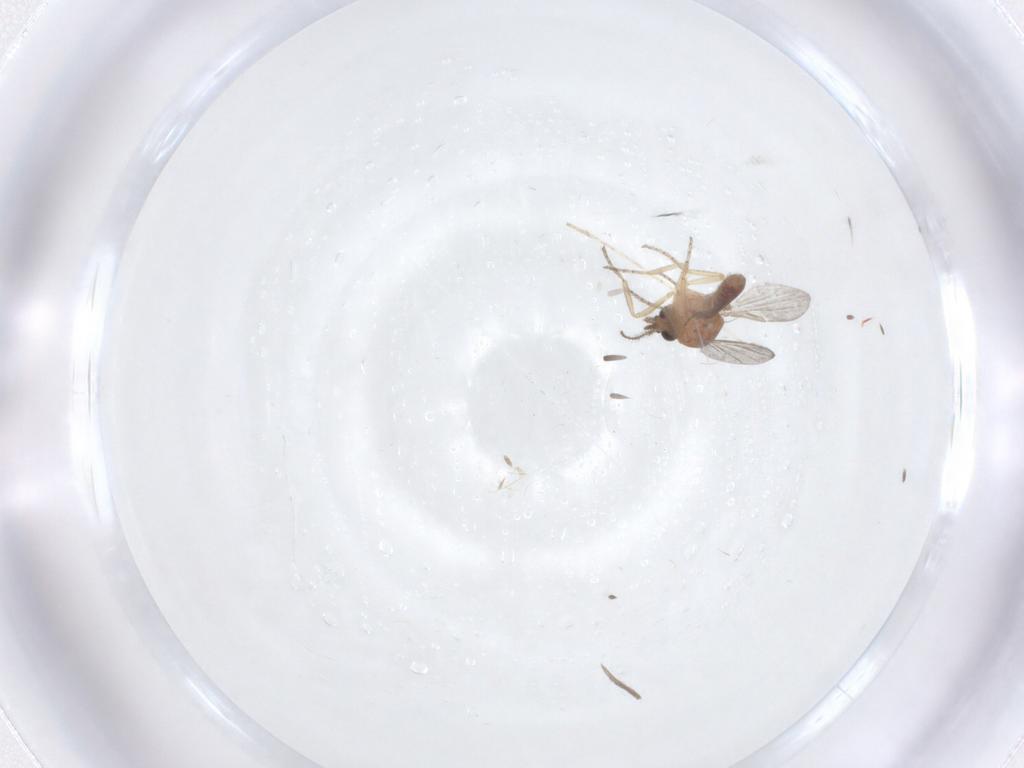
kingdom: Animalia
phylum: Arthropoda
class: Insecta
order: Diptera
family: Cecidomyiidae
